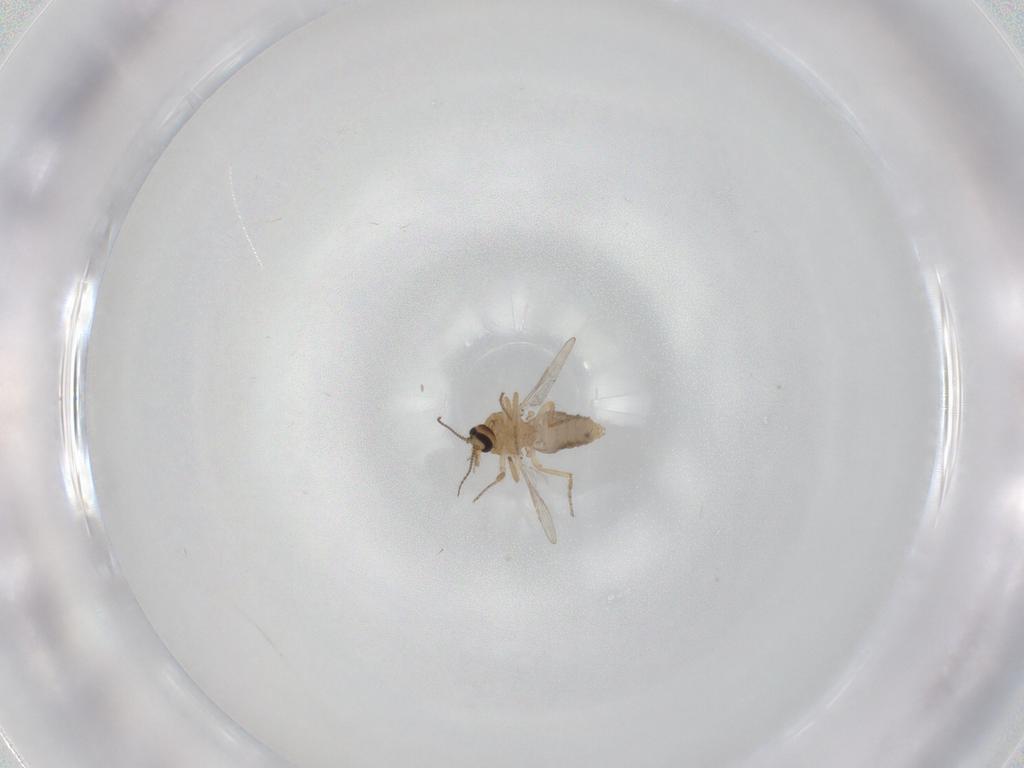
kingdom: Animalia
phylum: Arthropoda
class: Insecta
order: Diptera
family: Ceratopogonidae
